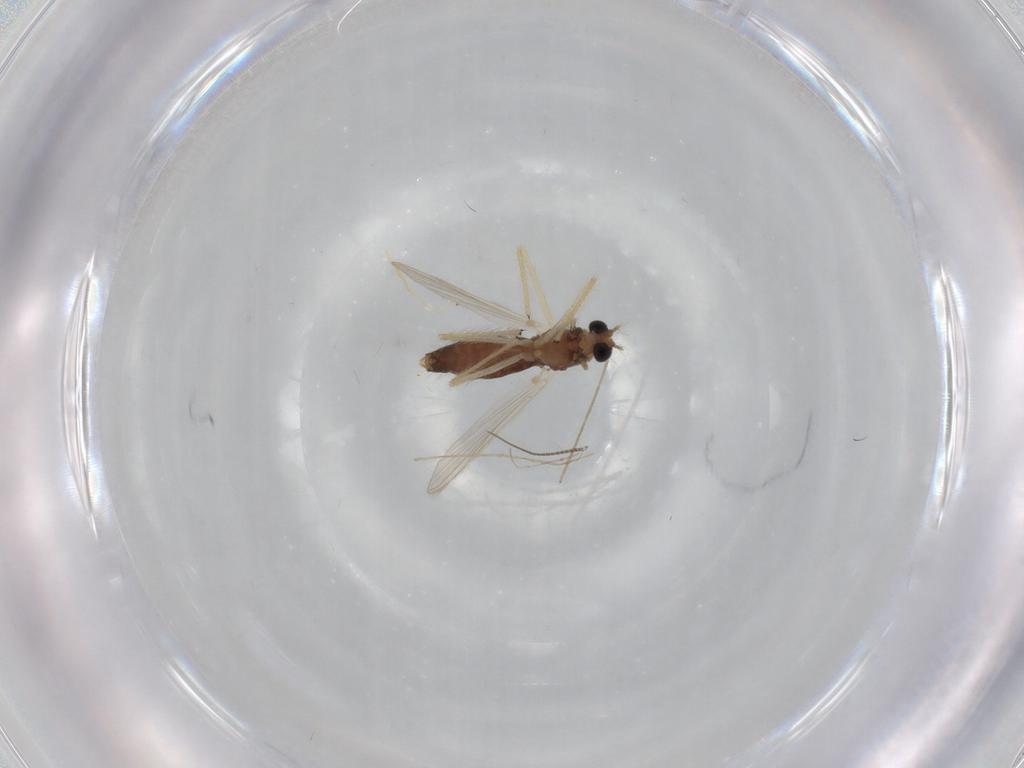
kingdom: Animalia
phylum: Arthropoda
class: Insecta
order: Diptera
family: Chironomidae
